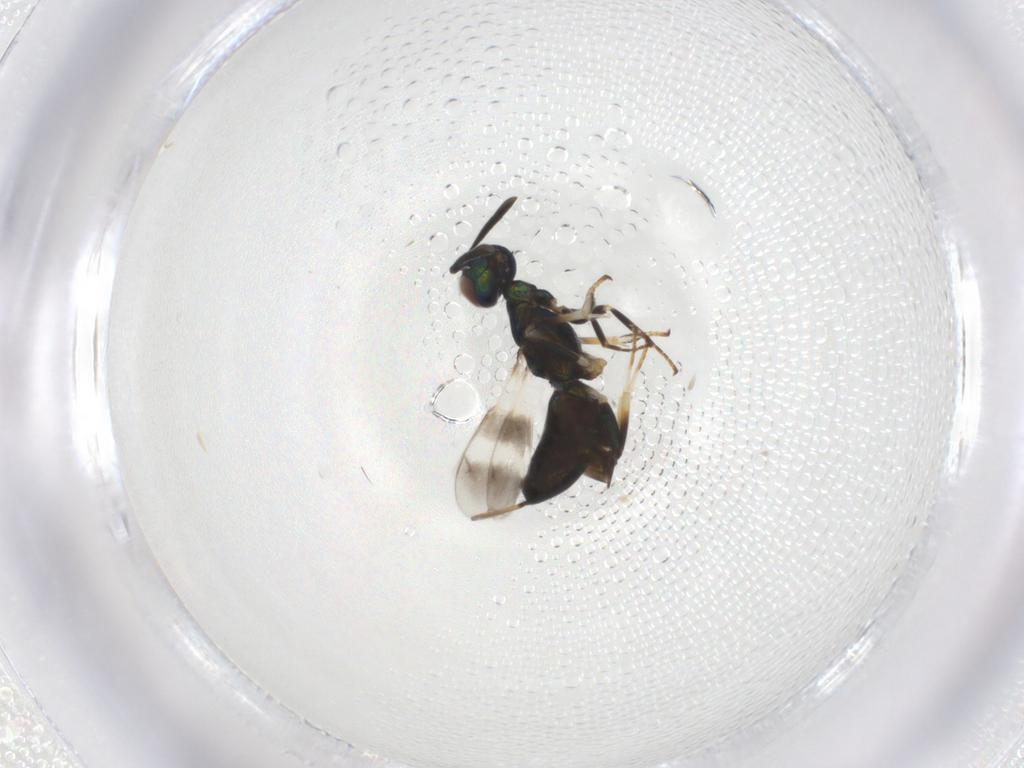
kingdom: Animalia
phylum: Arthropoda
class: Insecta
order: Hymenoptera
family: Eupelmidae
